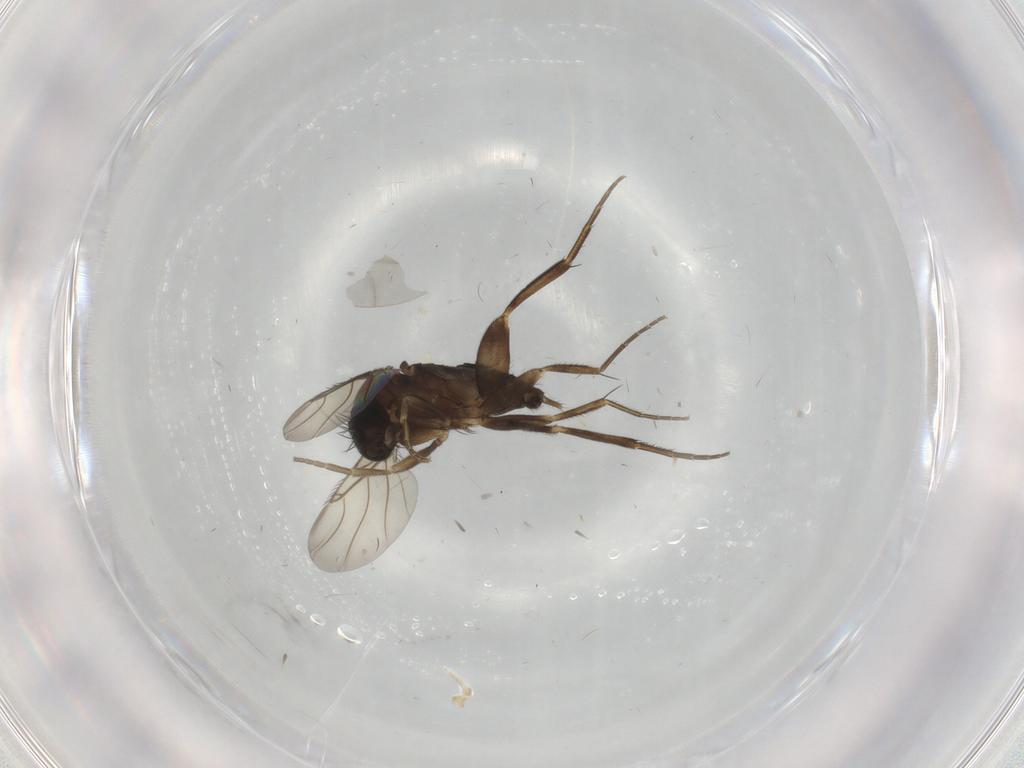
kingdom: Animalia
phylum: Arthropoda
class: Insecta
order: Diptera
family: Phoridae
